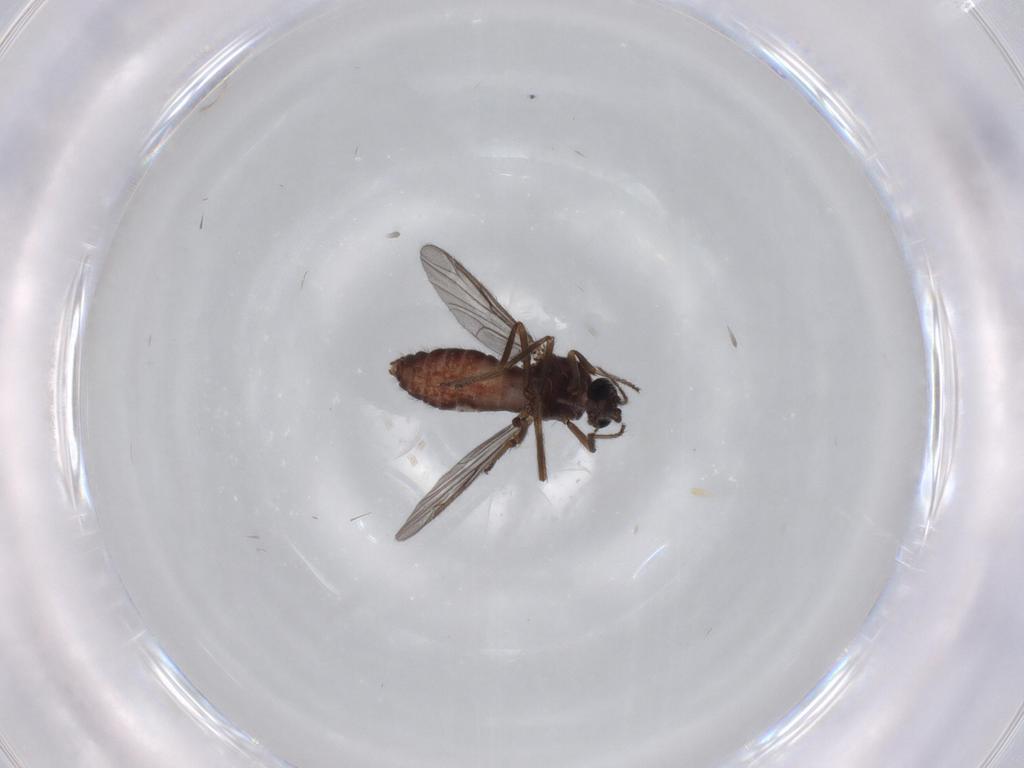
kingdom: Animalia
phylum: Arthropoda
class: Insecta
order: Diptera
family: Ceratopogonidae
